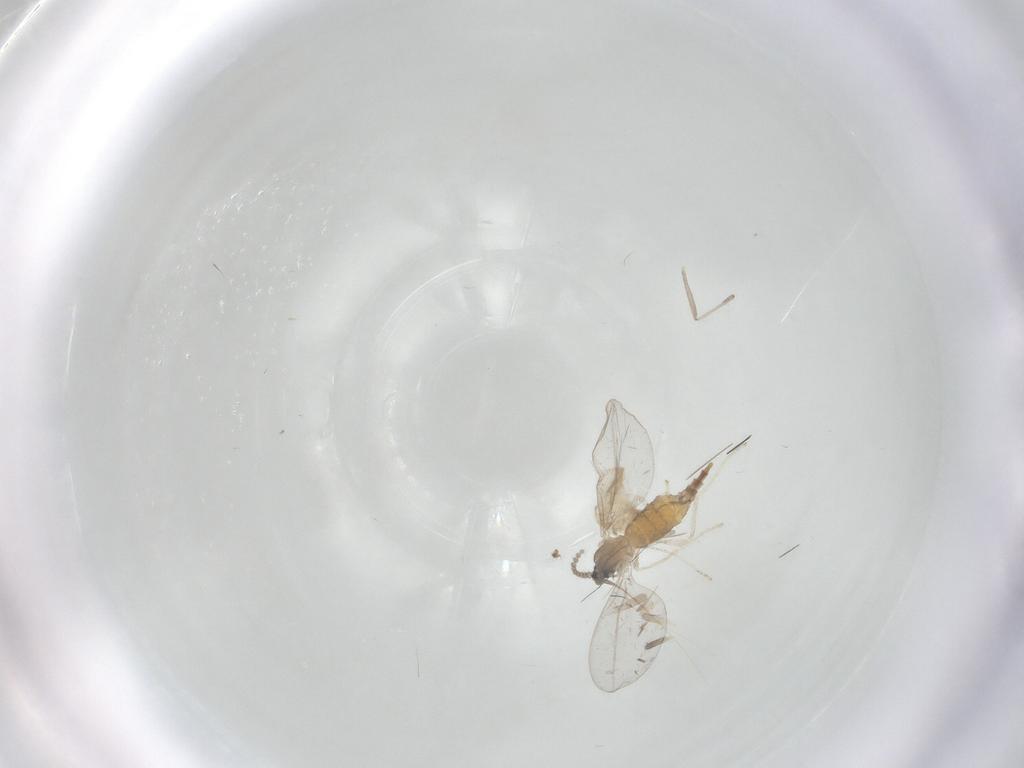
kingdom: Animalia
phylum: Arthropoda
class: Insecta
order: Diptera
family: Cecidomyiidae
